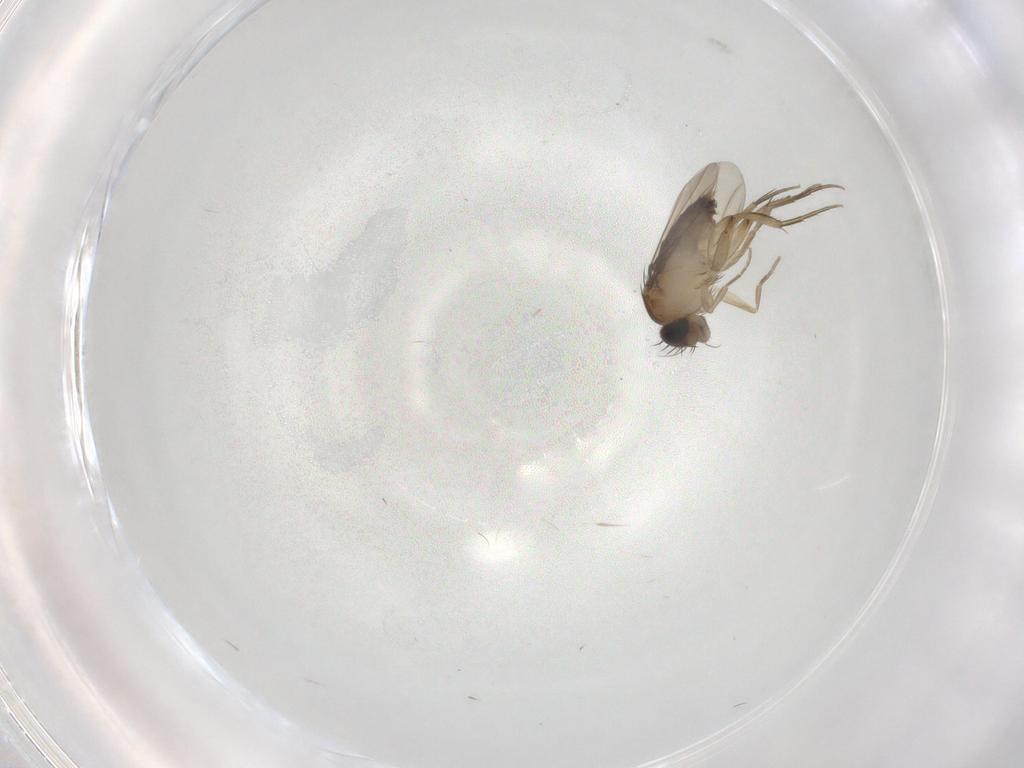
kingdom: Animalia
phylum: Arthropoda
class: Insecta
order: Diptera
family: Phoridae
